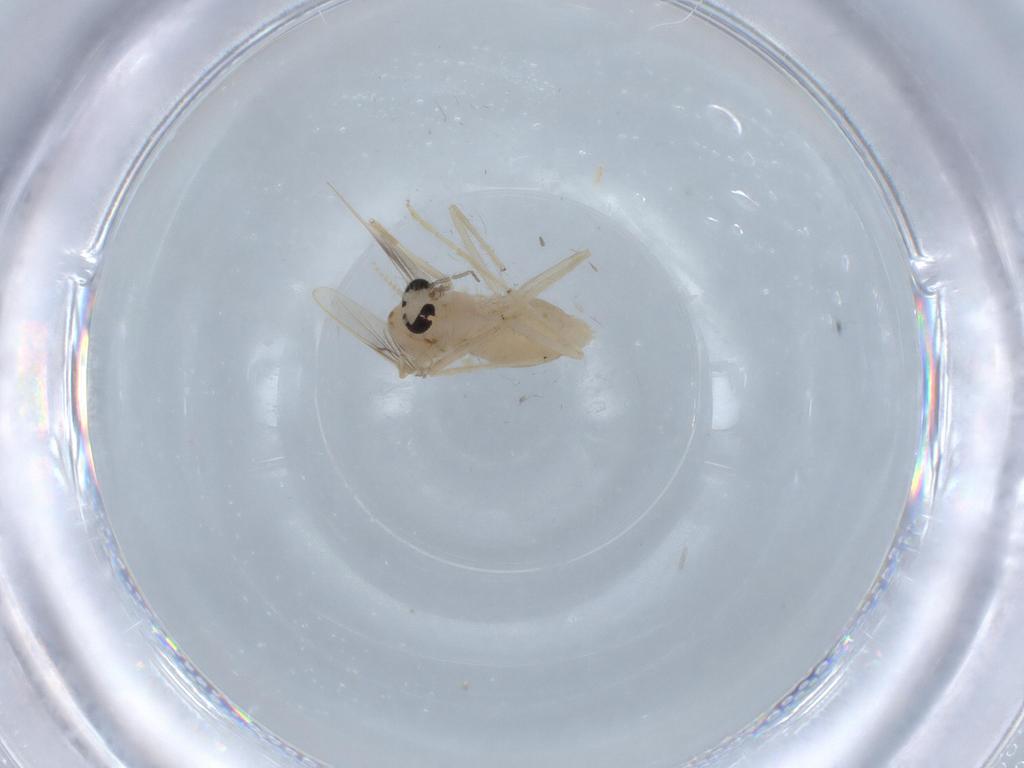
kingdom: Animalia
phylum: Arthropoda
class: Insecta
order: Diptera
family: Chironomidae
